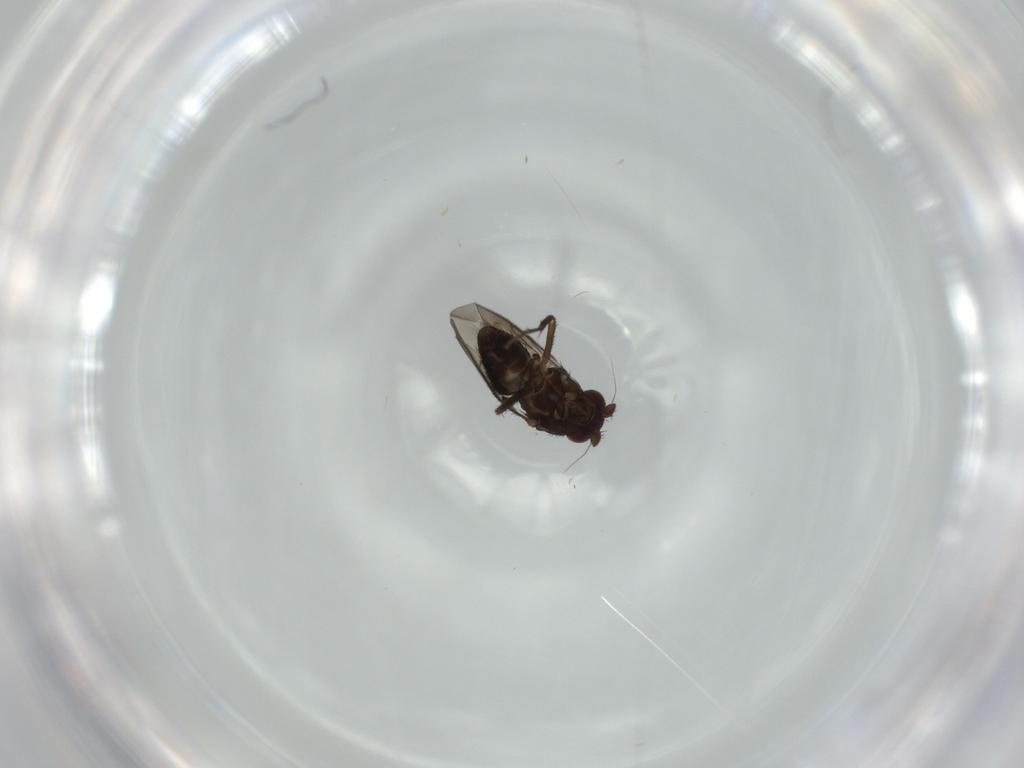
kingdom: Animalia
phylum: Arthropoda
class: Insecta
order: Diptera
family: Sphaeroceridae
